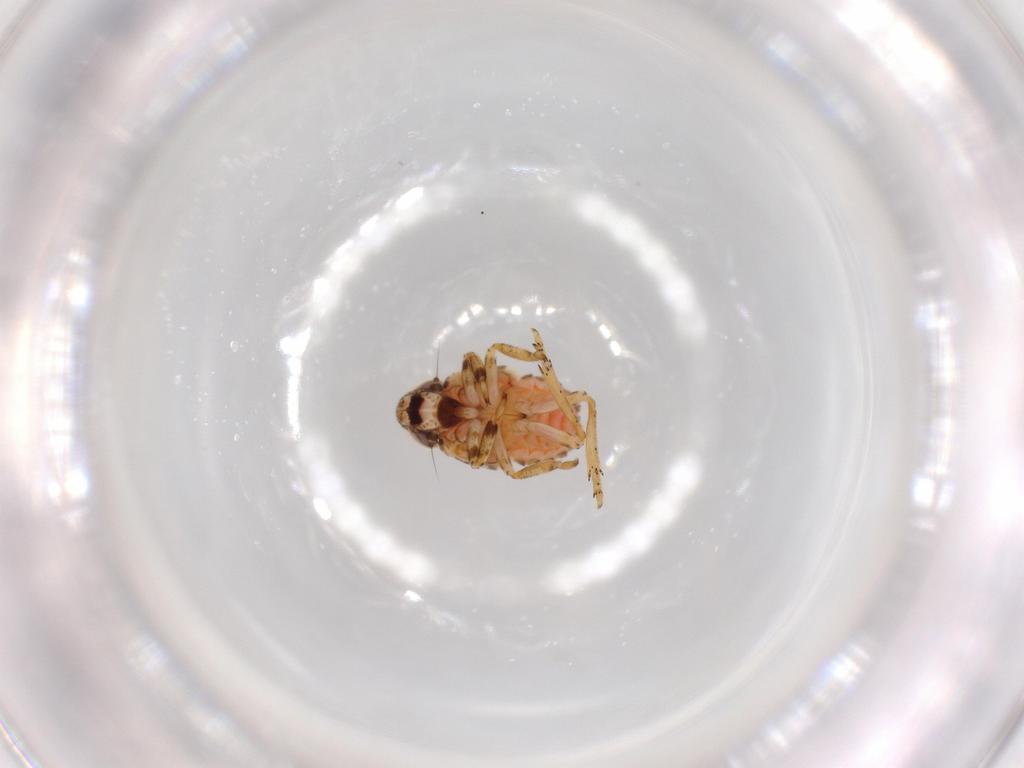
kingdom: Animalia
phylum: Arthropoda
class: Insecta
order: Hemiptera
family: Issidae
